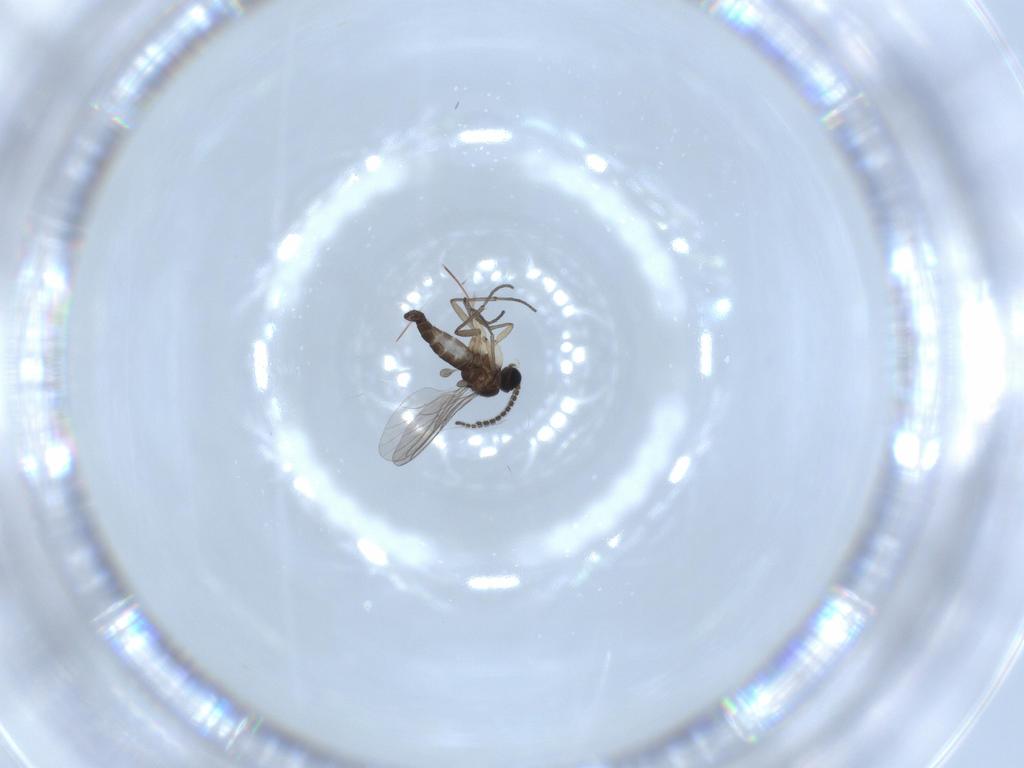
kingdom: Animalia
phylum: Arthropoda
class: Insecta
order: Diptera
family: Sciaridae
